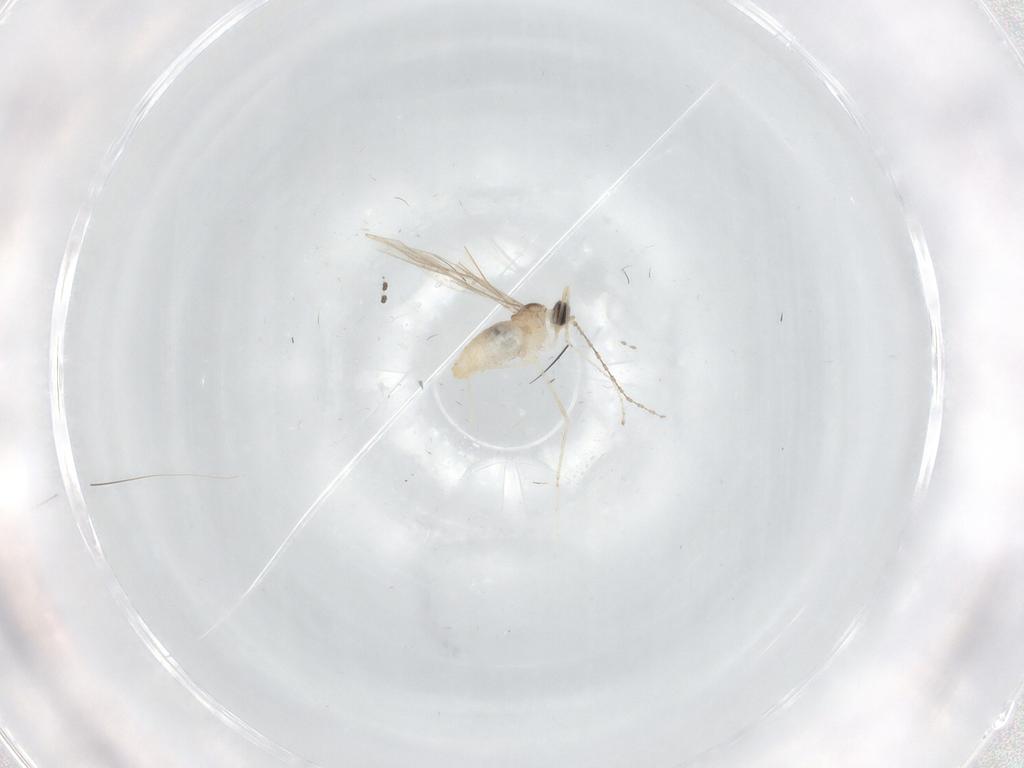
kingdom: Animalia
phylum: Arthropoda
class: Insecta
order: Diptera
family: Cecidomyiidae
